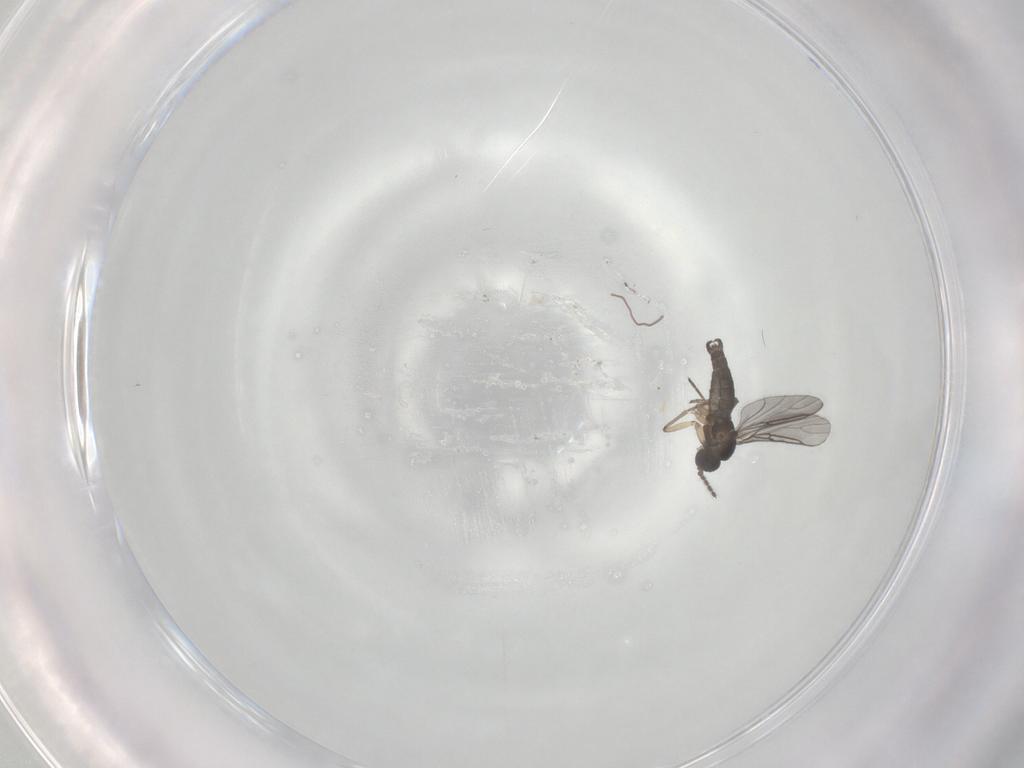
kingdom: Animalia
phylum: Arthropoda
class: Insecta
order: Diptera
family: Sciaridae
